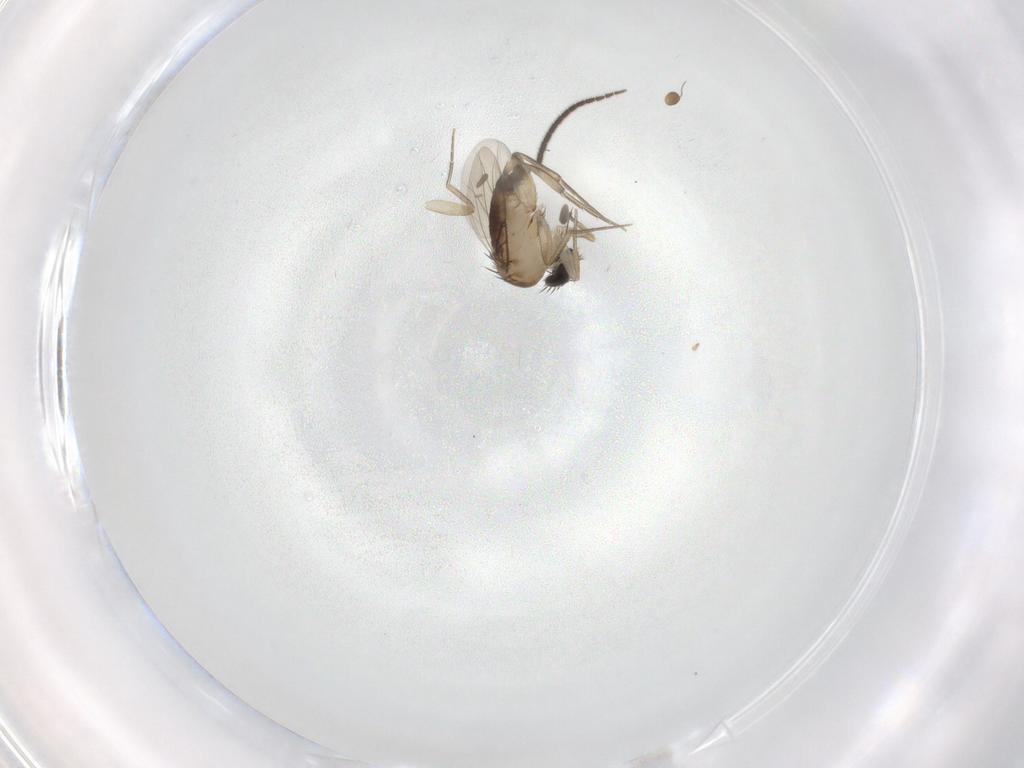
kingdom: Animalia
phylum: Arthropoda
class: Insecta
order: Diptera
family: Phoridae
